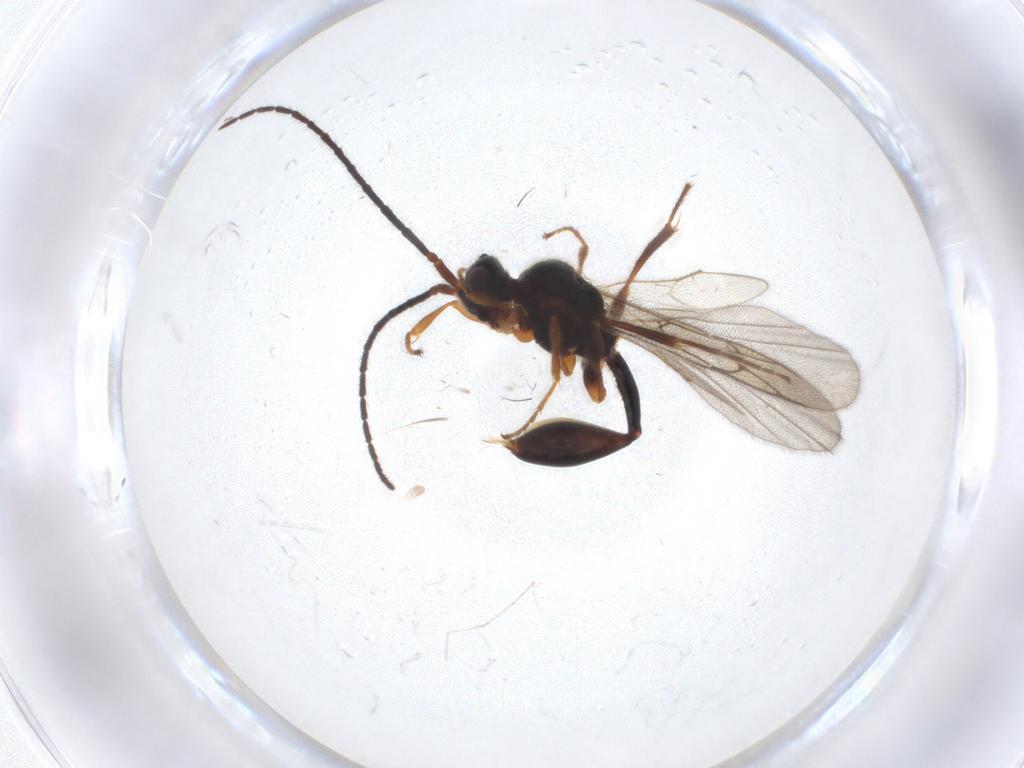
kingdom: Animalia
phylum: Arthropoda
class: Insecta
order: Hymenoptera
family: Diapriidae
